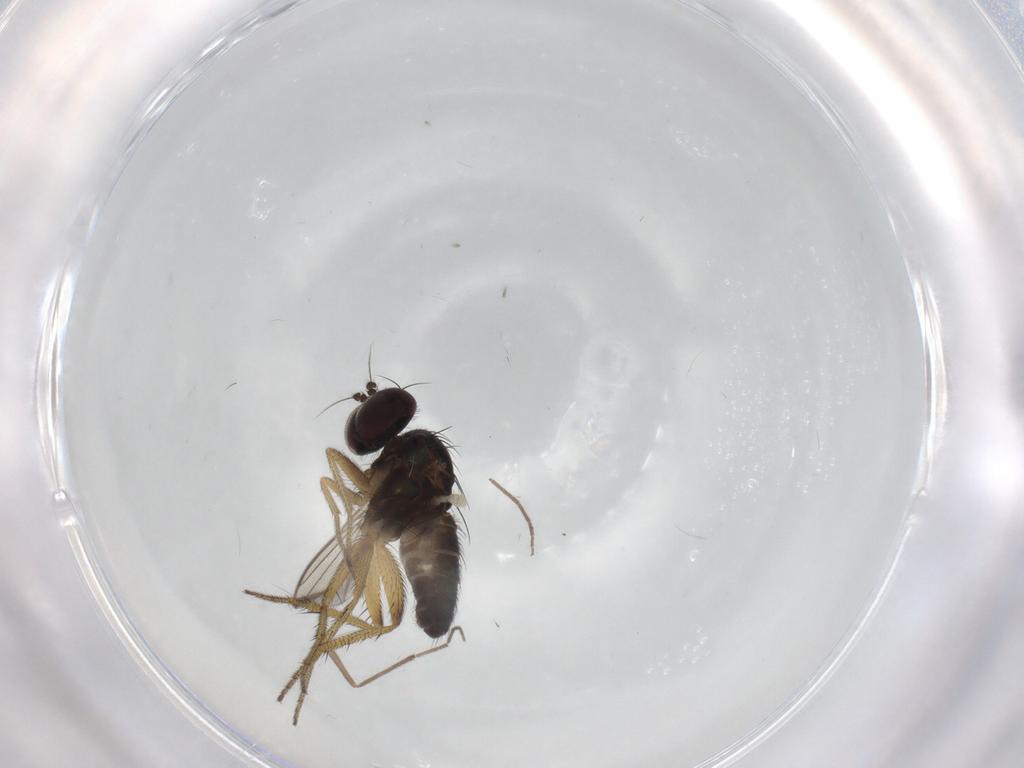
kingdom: Animalia
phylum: Arthropoda
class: Insecta
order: Diptera
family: Dolichopodidae
